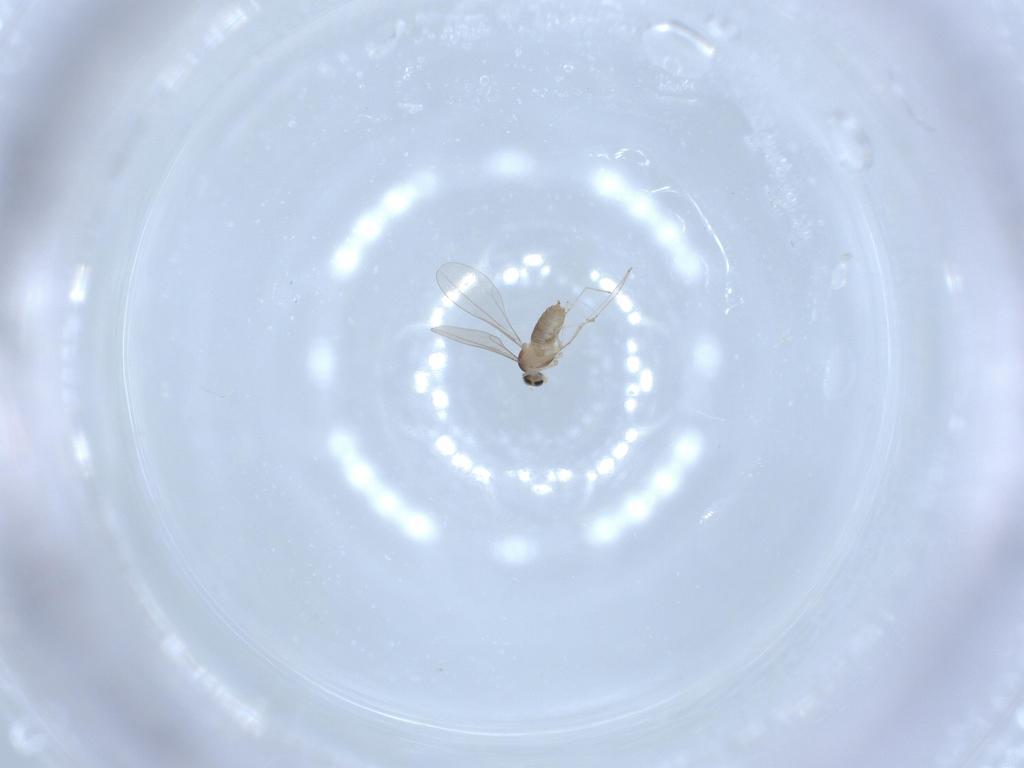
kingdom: Animalia
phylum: Arthropoda
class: Insecta
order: Diptera
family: Cecidomyiidae
